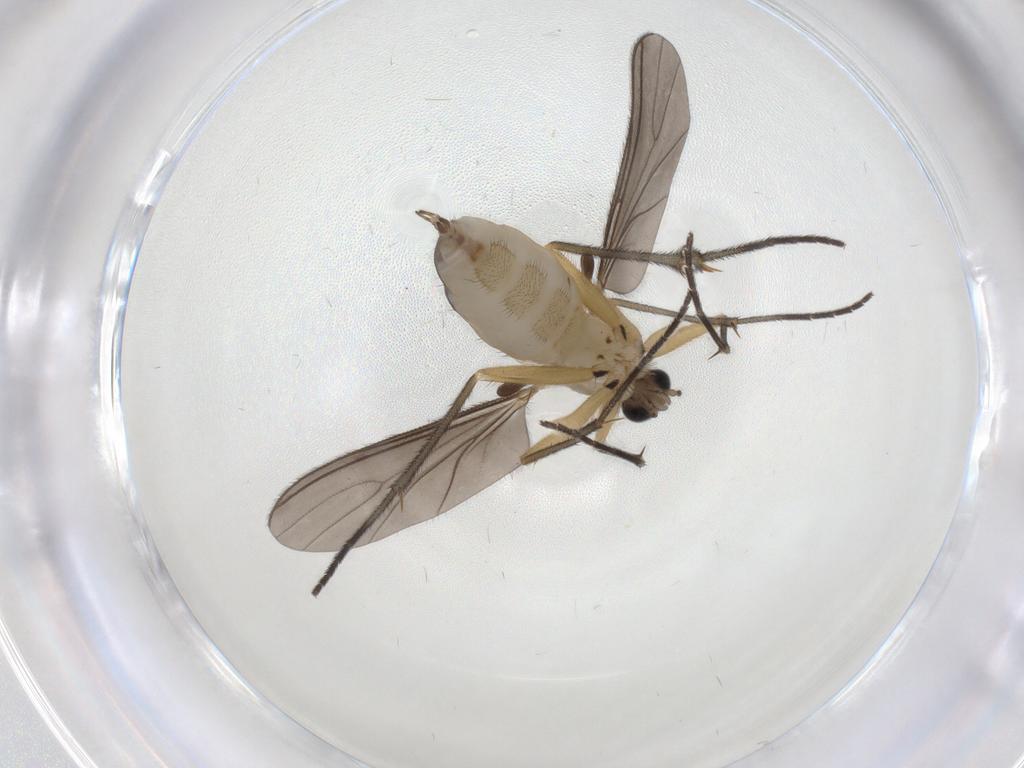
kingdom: Animalia
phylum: Arthropoda
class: Insecta
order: Diptera
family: Sciaridae
